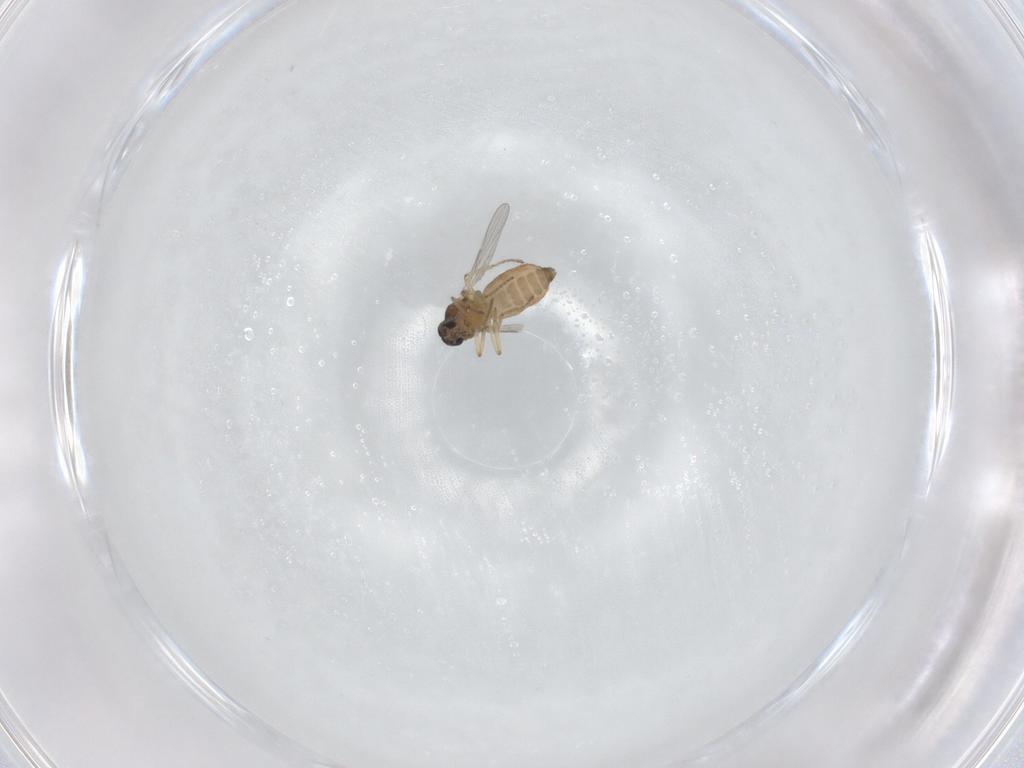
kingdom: Animalia
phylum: Arthropoda
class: Insecta
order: Diptera
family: Ceratopogonidae
